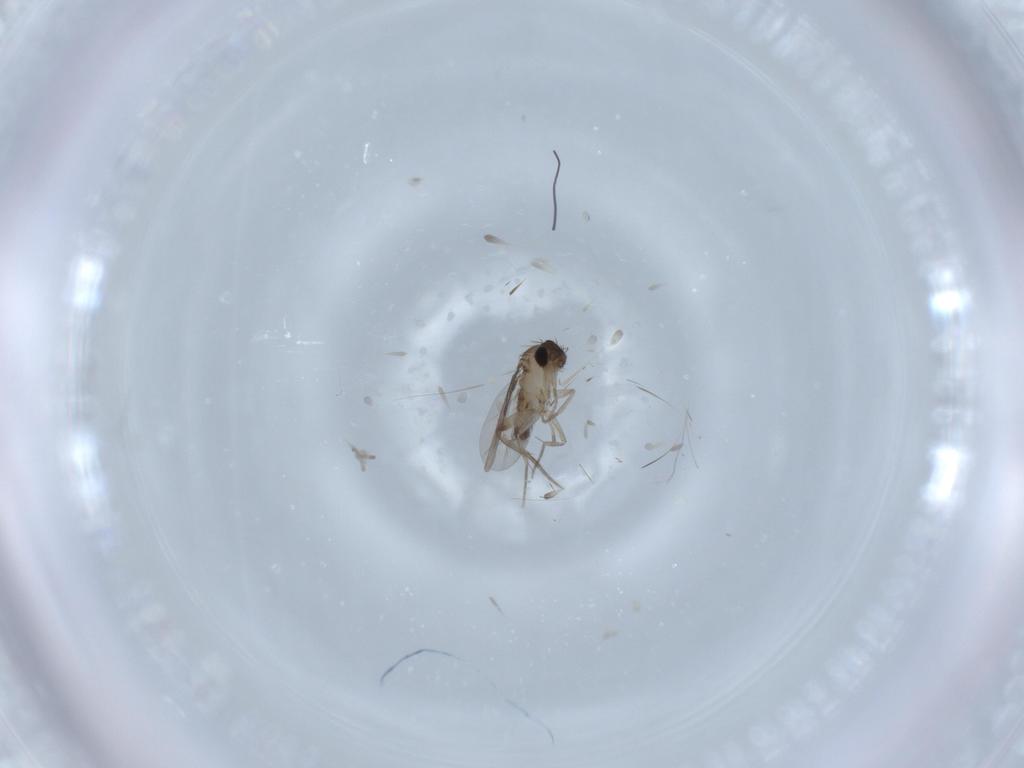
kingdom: Animalia
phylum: Arthropoda
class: Insecta
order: Diptera
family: Phoridae
